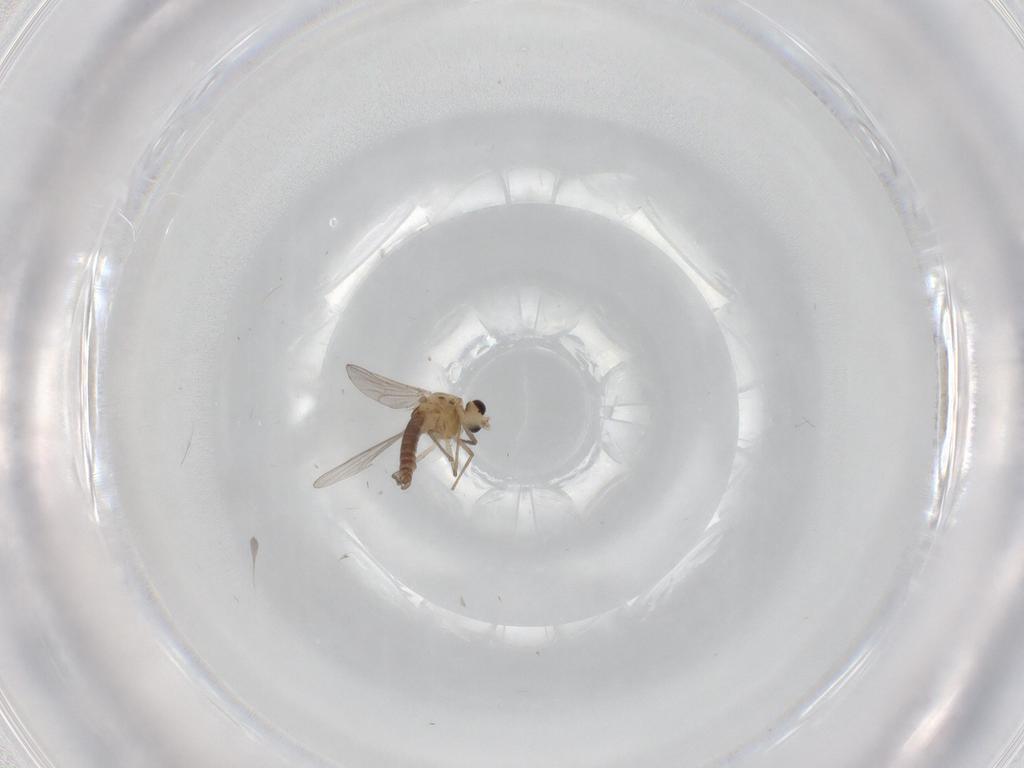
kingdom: Animalia
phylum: Arthropoda
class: Insecta
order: Diptera
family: Chironomidae
